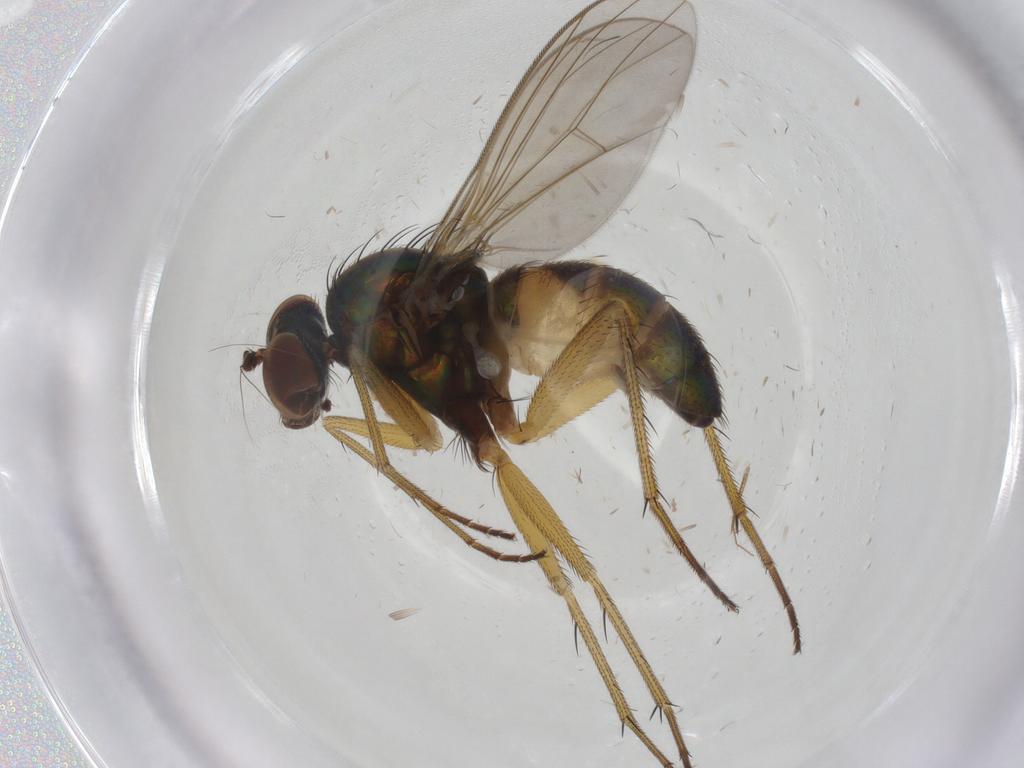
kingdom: Animalia
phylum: Arthropoda
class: Insecta
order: Diptera
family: Ceratopogonidae
